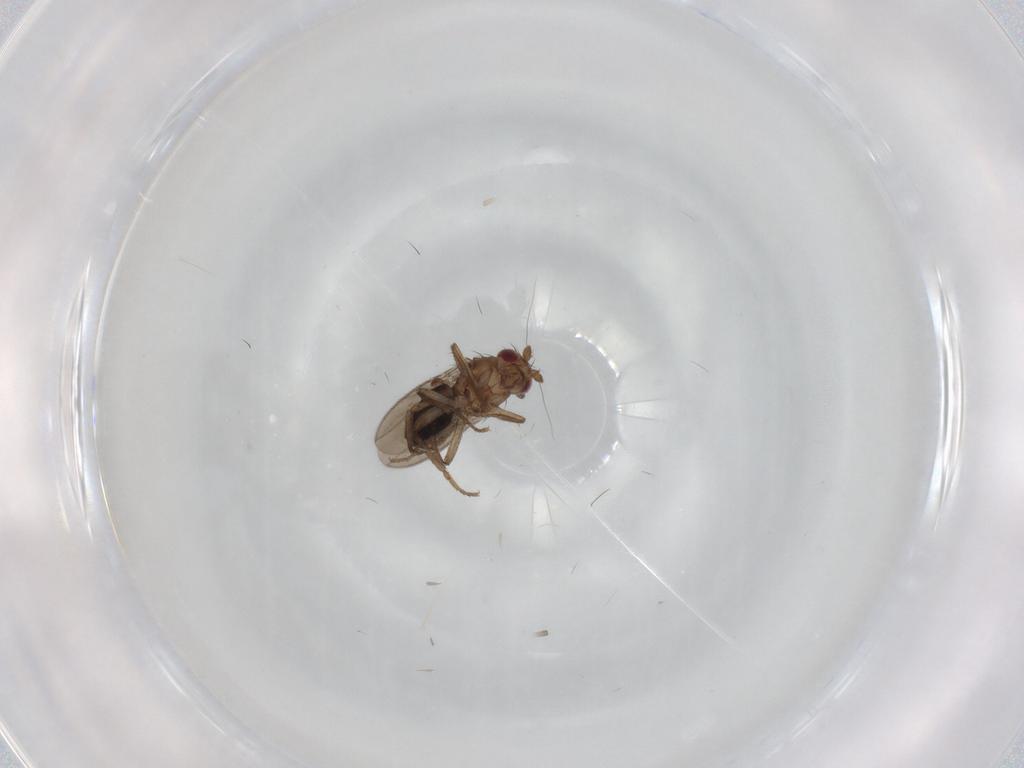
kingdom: Animalia
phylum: Arthropoda
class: Insecta
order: Diptera
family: Sphaeroceridae
